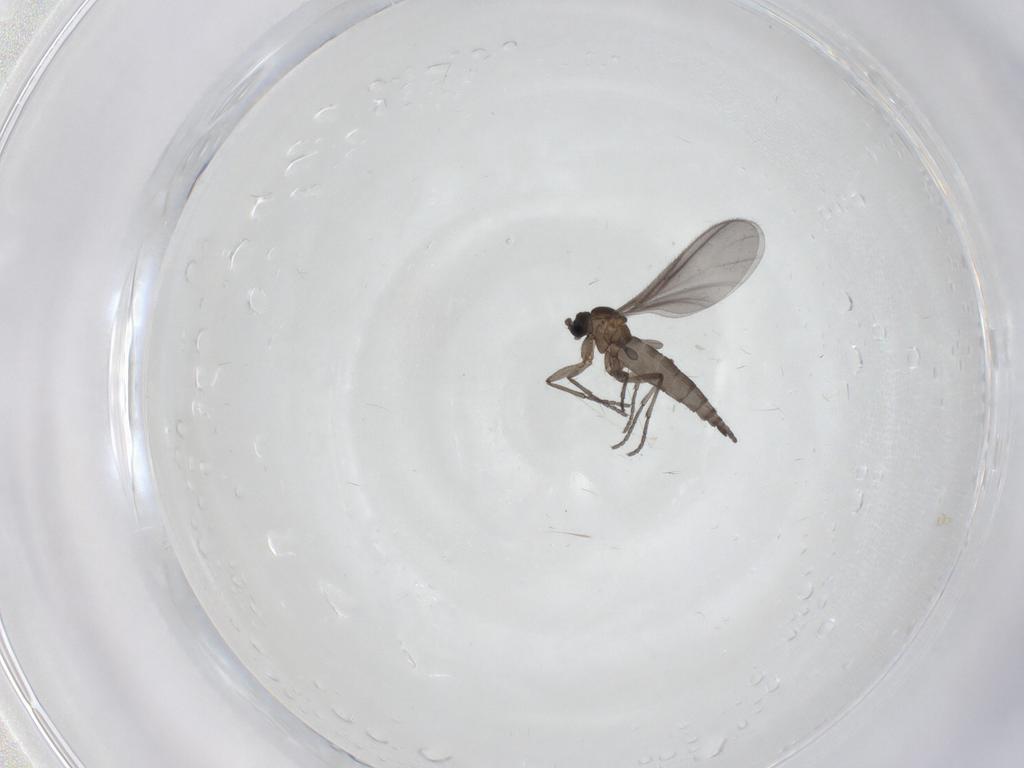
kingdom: Animalia
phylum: Arthropoda
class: Insecta
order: Diptera
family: Sciaridae
